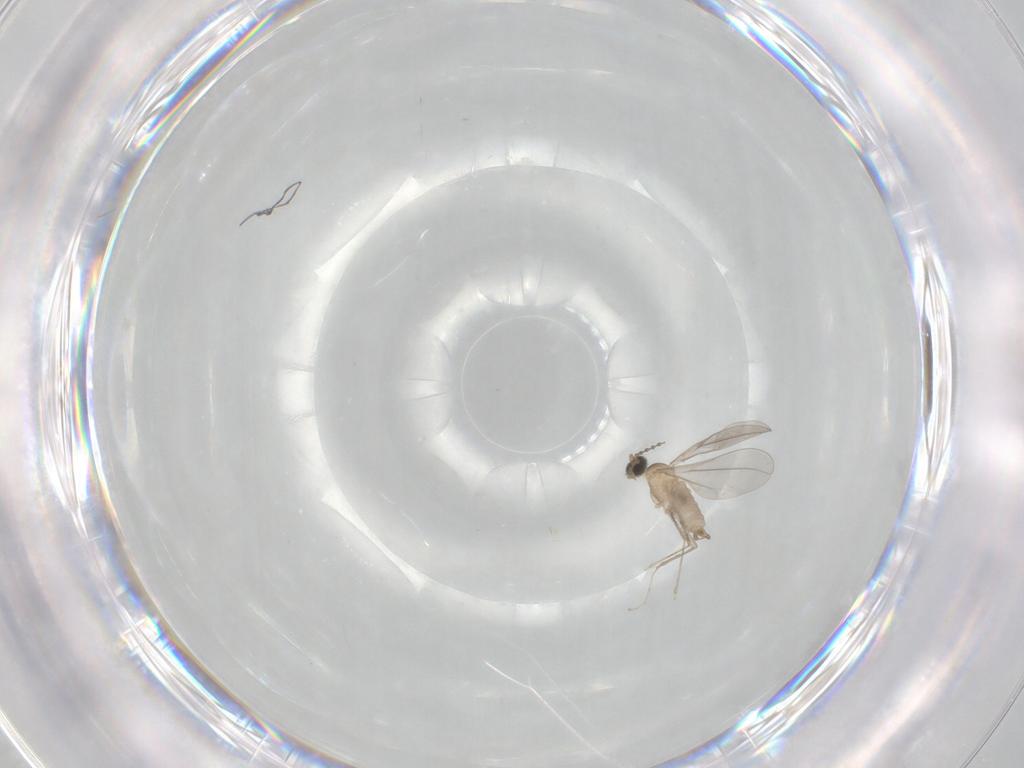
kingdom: Animalia
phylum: Arthropoda
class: Insecta
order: Diptera
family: Cecidomyiidae
